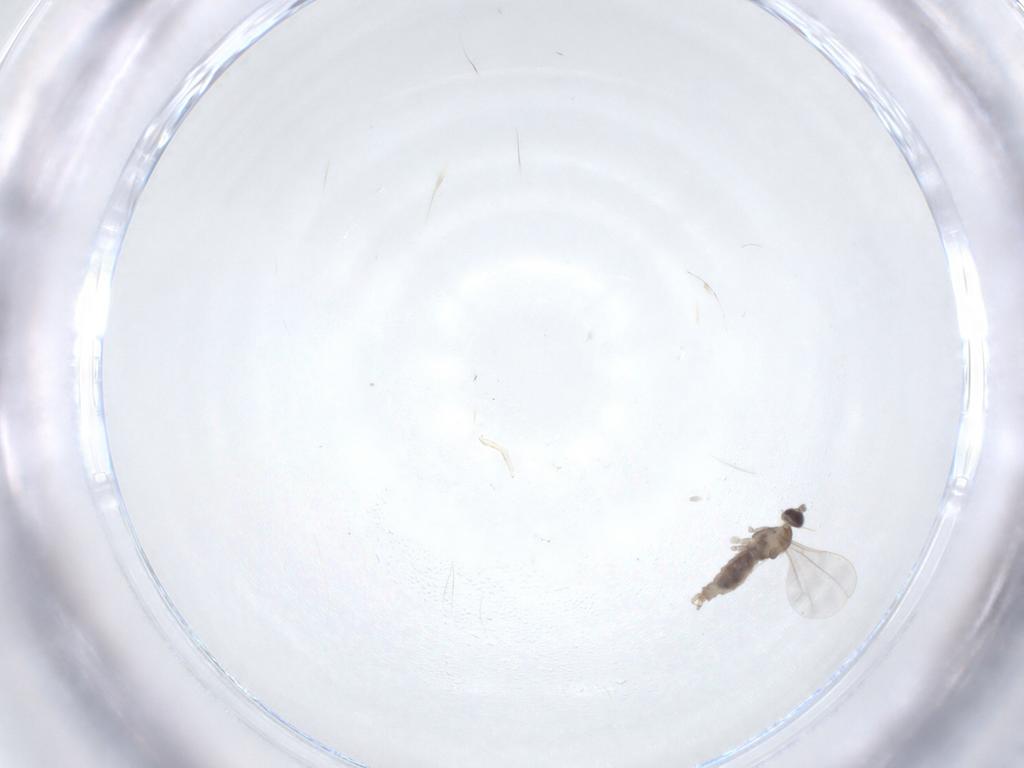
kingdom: Animalia
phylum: Arthropoda
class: Insecta
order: Diptera
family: Cecidomyiidae
